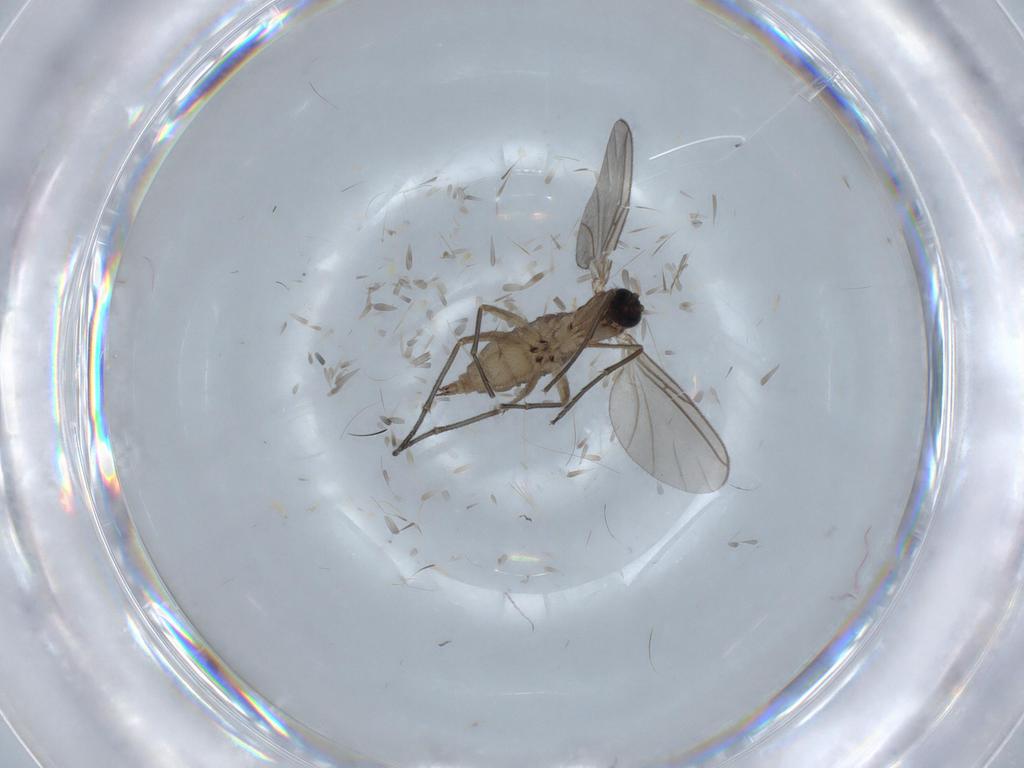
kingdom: Animalia
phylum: Arthropoda
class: Insecta
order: Diptera
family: Sciaridae
